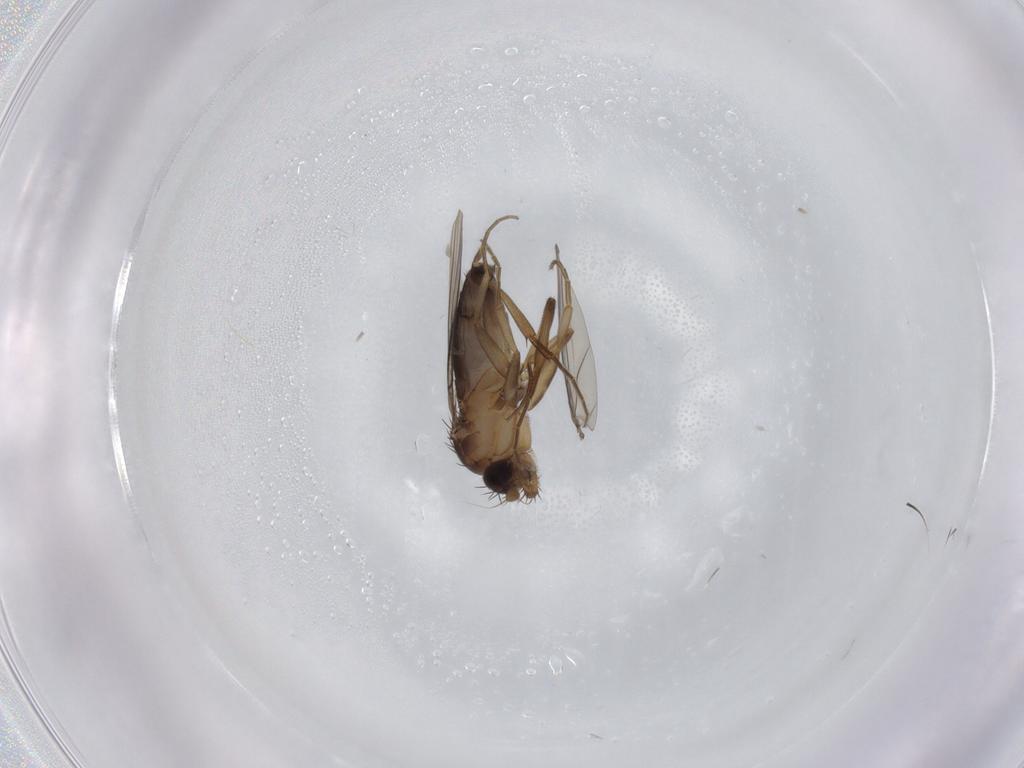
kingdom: Animalia
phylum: Arthropoda
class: Insecta
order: Diptera
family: Phoridae
